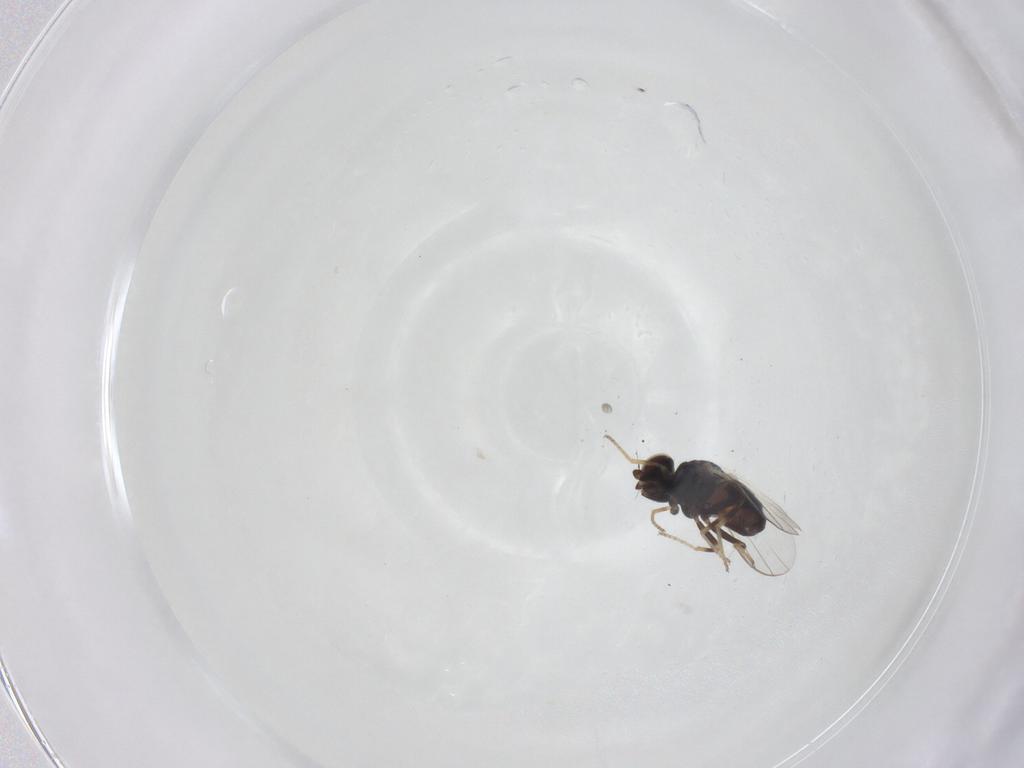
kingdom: Animalia
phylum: Arthropoda
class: Insecta
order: Diptera
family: Chloropidae
